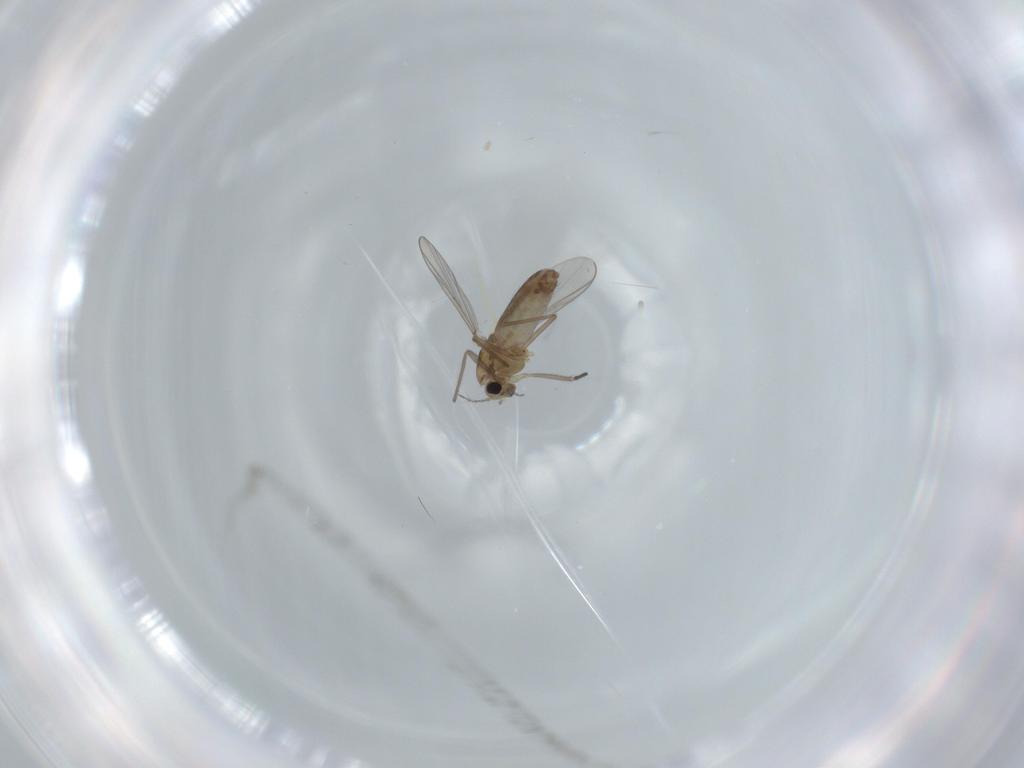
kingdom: Animalia
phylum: Arthropoda
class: Insecta
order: Diptera
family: Chironomidae
